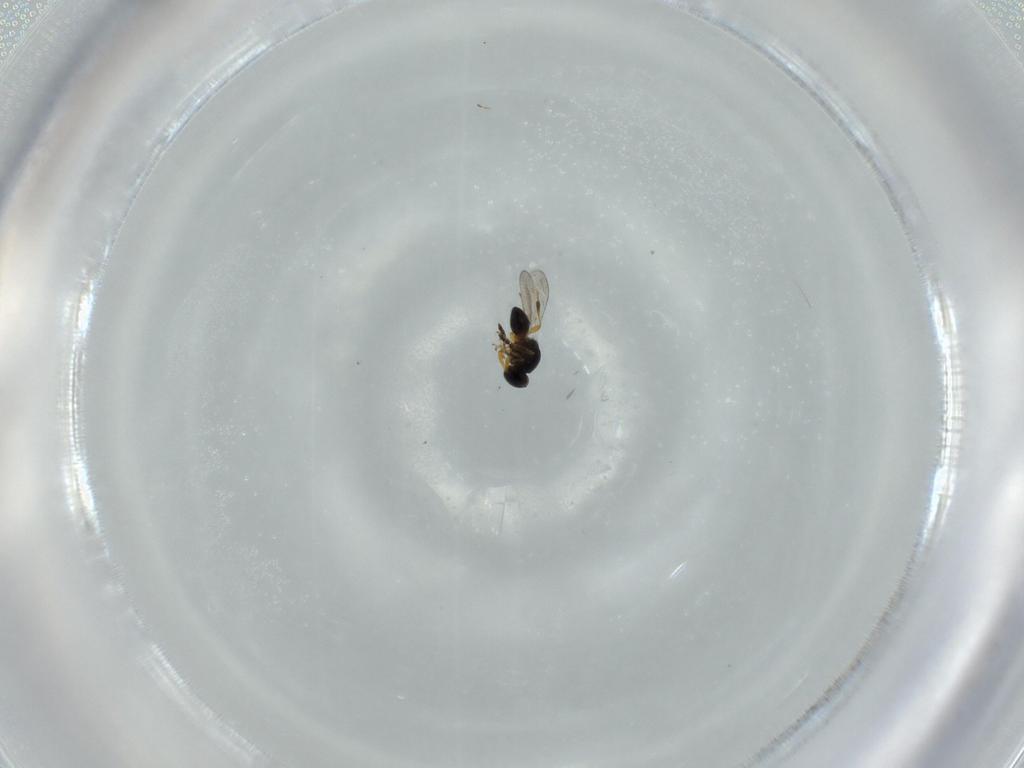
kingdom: Animalia
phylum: Arthropoda
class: Insecta
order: Hymenoptera
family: Platygastridae
